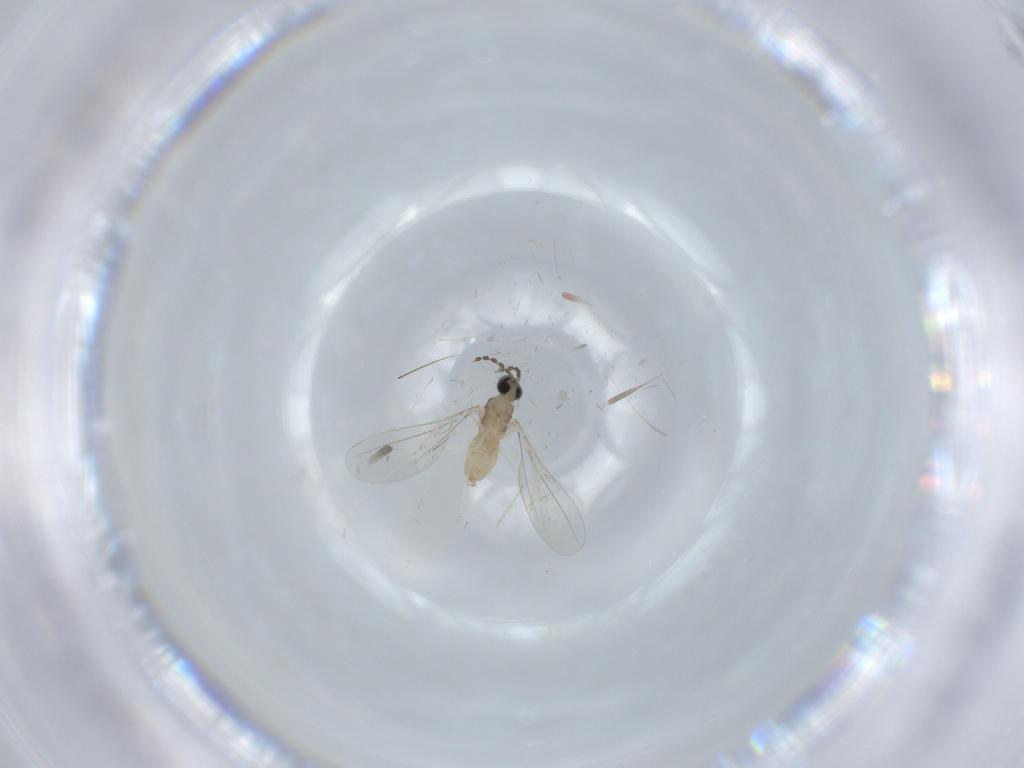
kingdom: Animalia
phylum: Arthropoda
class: Insecta
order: Diptera
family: Cecidomyiidae
